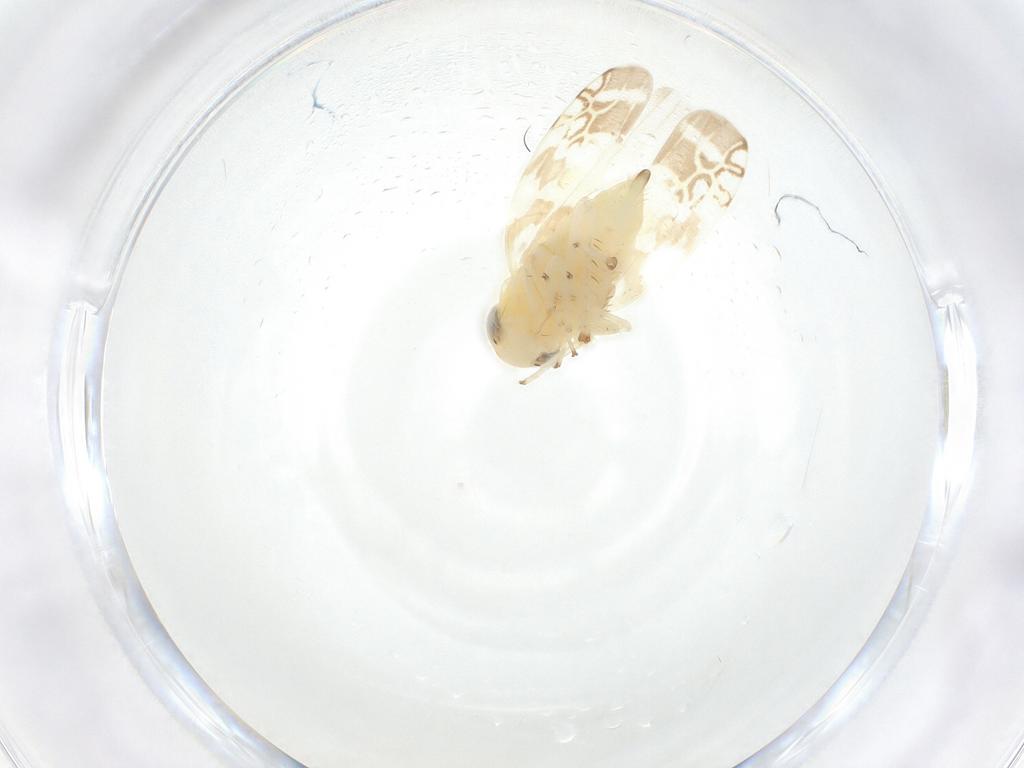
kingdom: Animalia
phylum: Arthropoda
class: Insecta
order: Hemiptera
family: Cicadellidae
